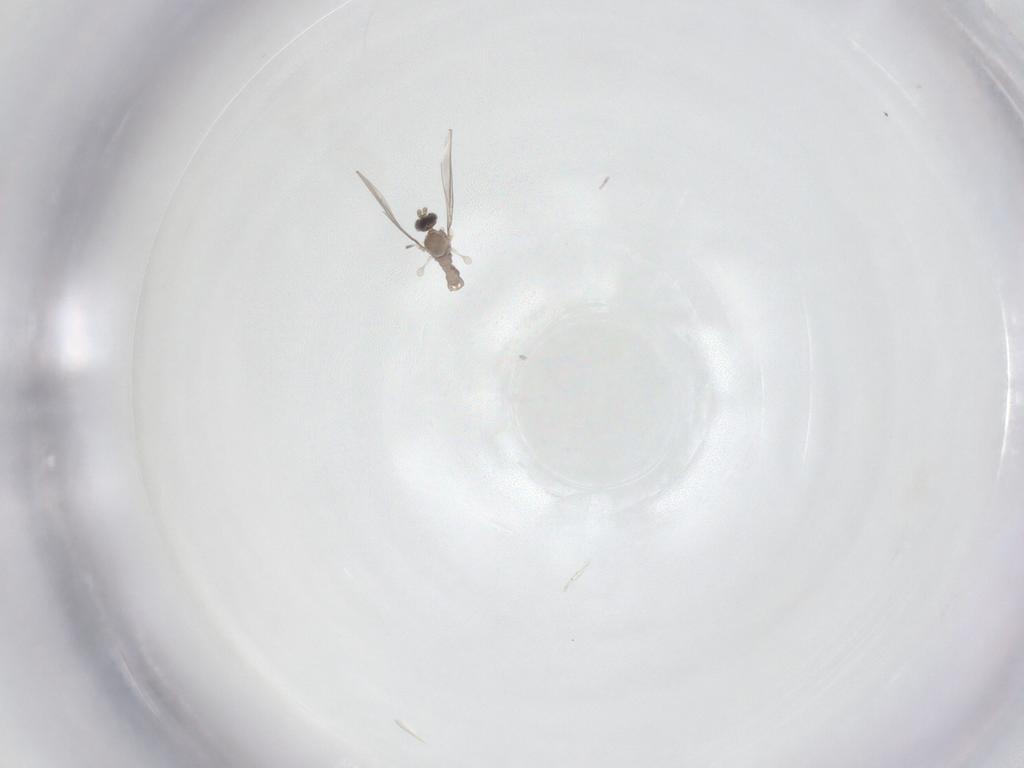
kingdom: Animalia
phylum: Arthropoda
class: Insecta
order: Diptera
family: Cecidomyiidae
